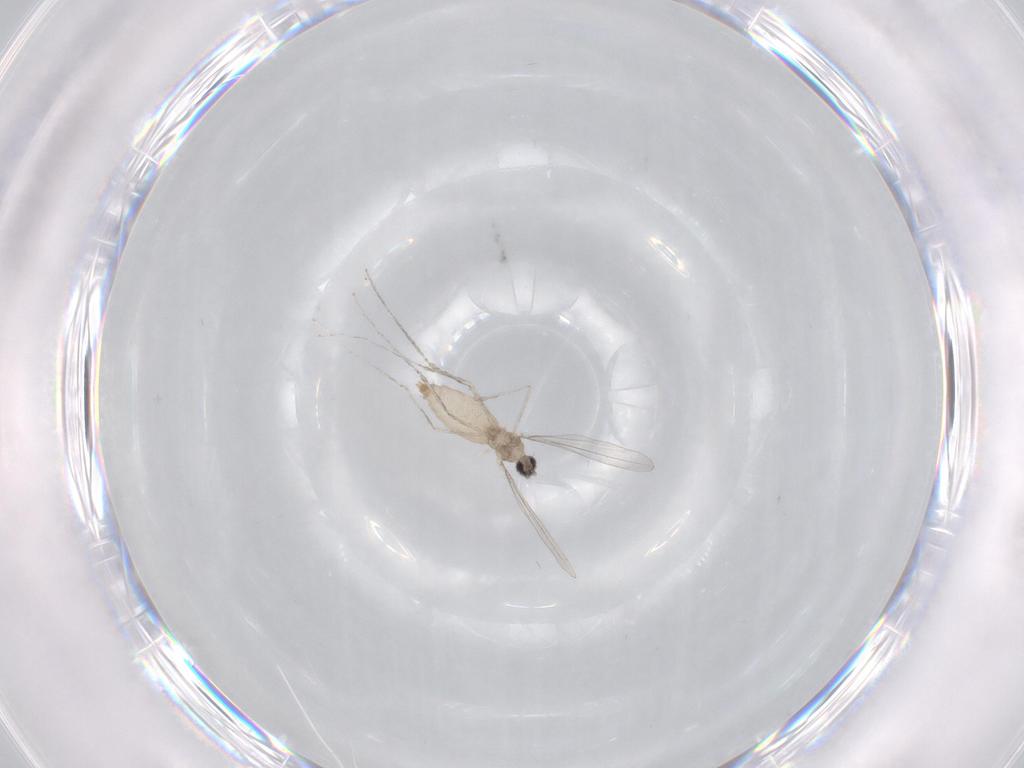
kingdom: Animalia
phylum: Arthropoda
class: Insecta
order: Diptera
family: Cecidomyiidae
